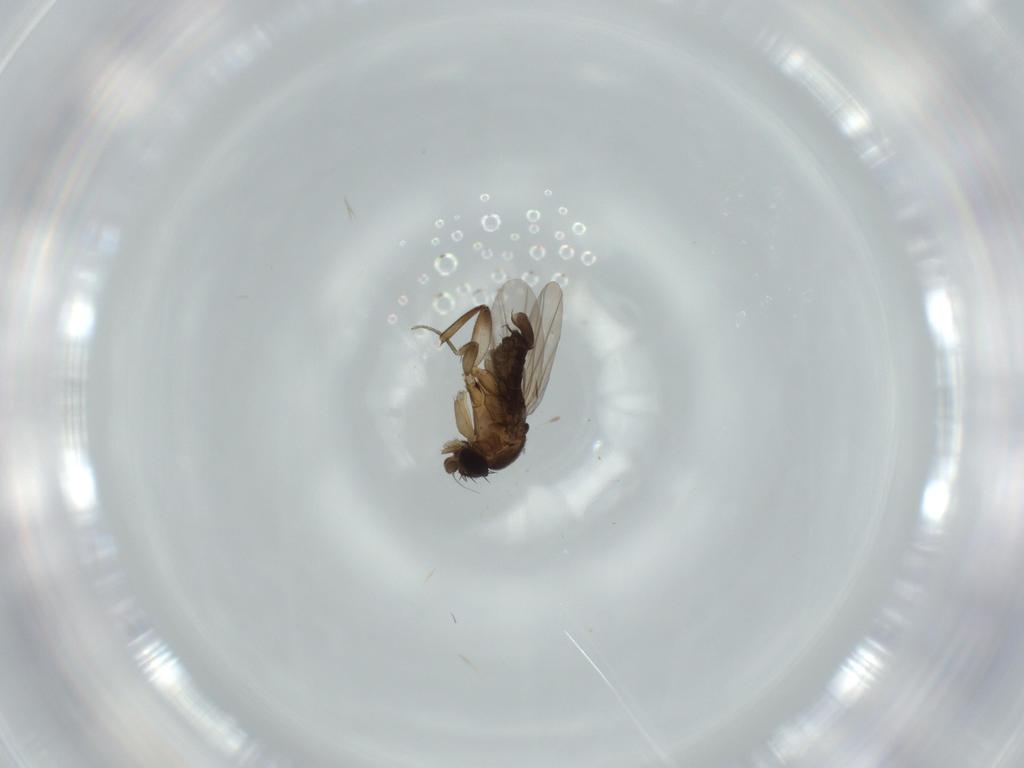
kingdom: Animalia
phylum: Arthropoda
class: Insecta
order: Diptera
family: Phoridae
